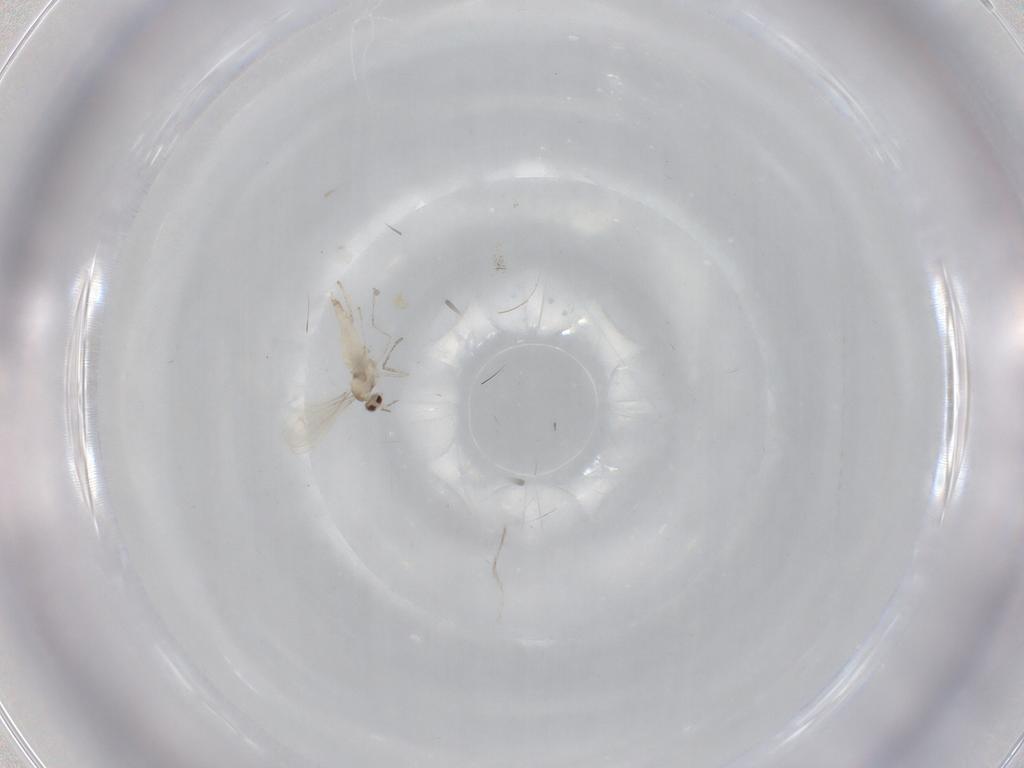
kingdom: Animalia
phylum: Arthropoda
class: Insecta
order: Diptera
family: Cecidomyiidae
